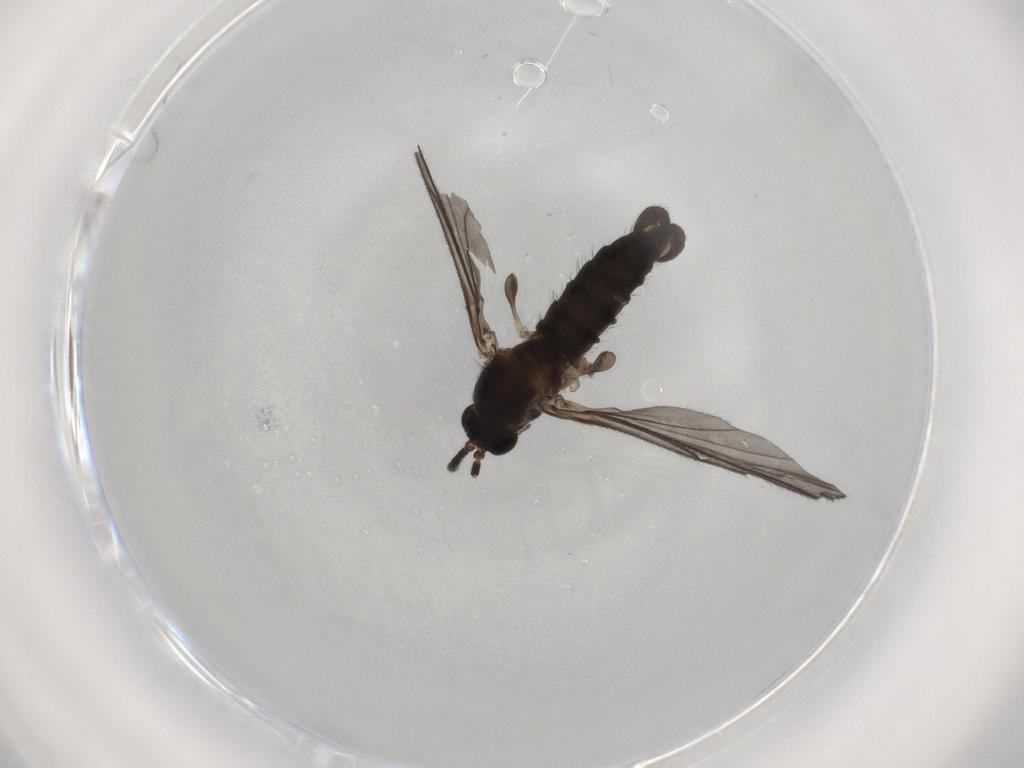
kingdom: Animalia
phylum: Arthropoda
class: Insecta
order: Diptera
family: Sciaridae
